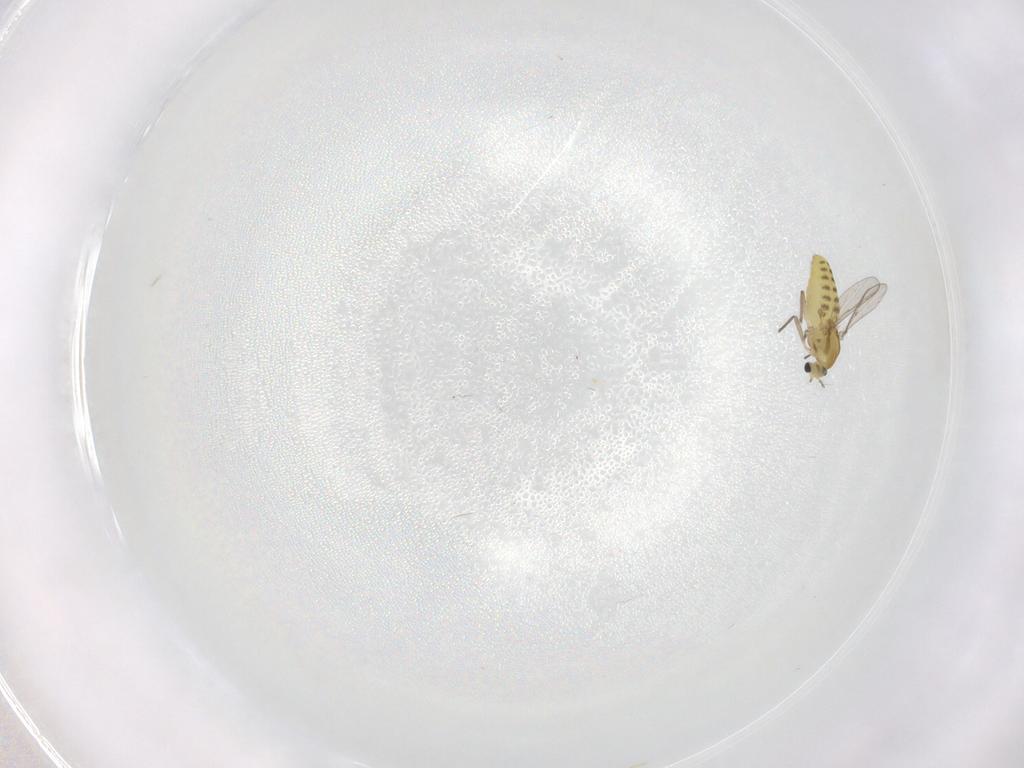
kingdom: Animalia
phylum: Arthropoda
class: Insecta
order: Diptera
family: Chironomidae
